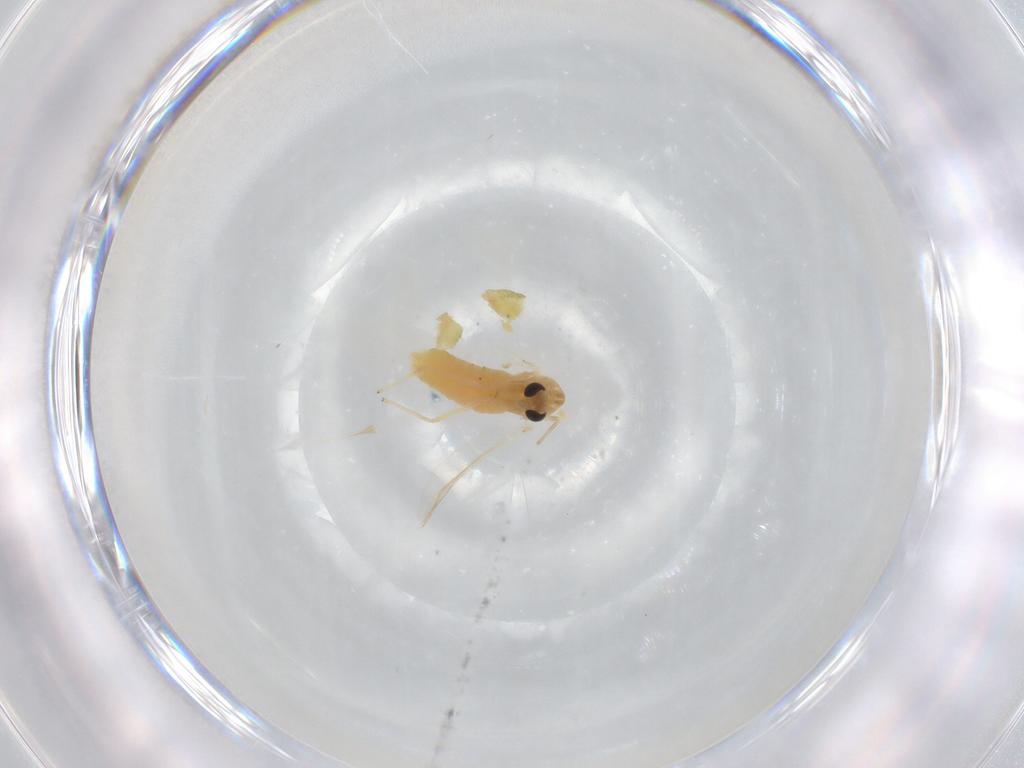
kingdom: Animalia
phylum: Arthropoda
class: Insecta
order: Diptera
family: Chironomidae
